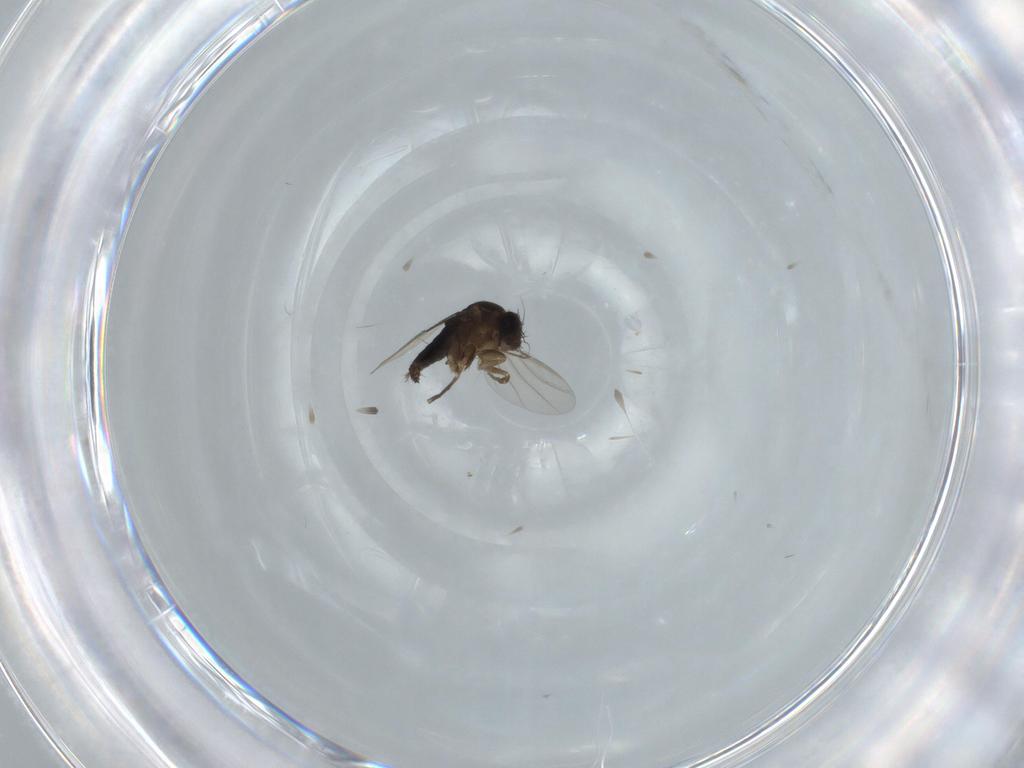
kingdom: Animalia
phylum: Arthropoda
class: Insecta
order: Diptera
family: Phoridae
